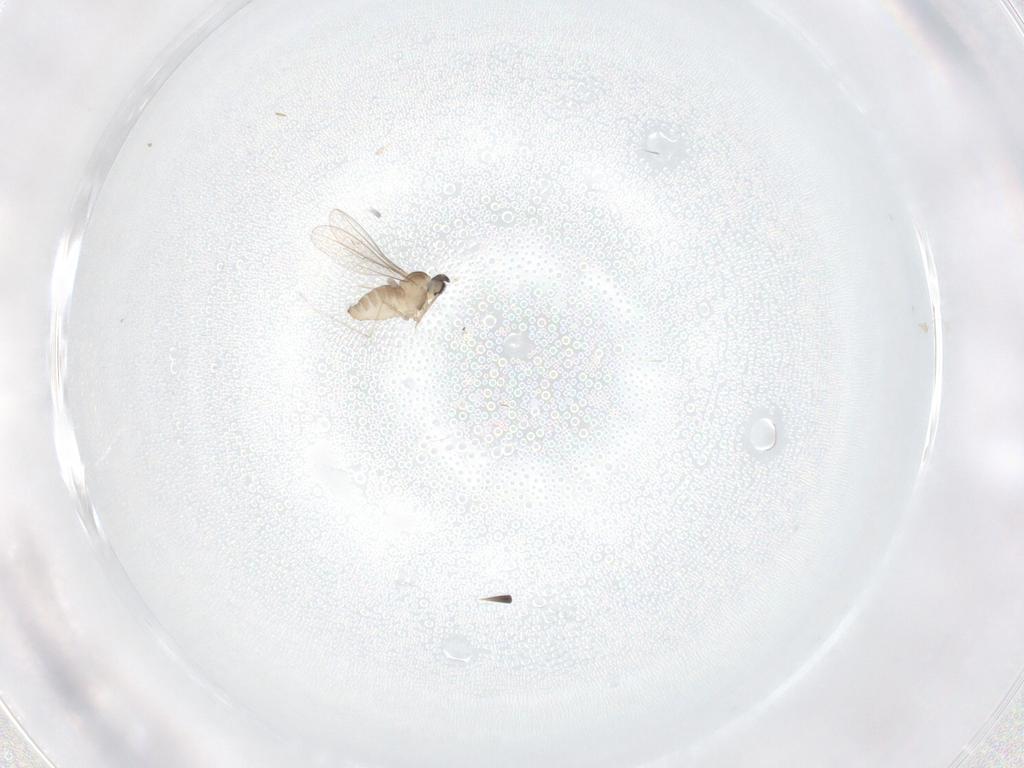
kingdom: Animalia
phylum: Arthropoda
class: Insecta
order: Diptera
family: Cecidomyiidae
